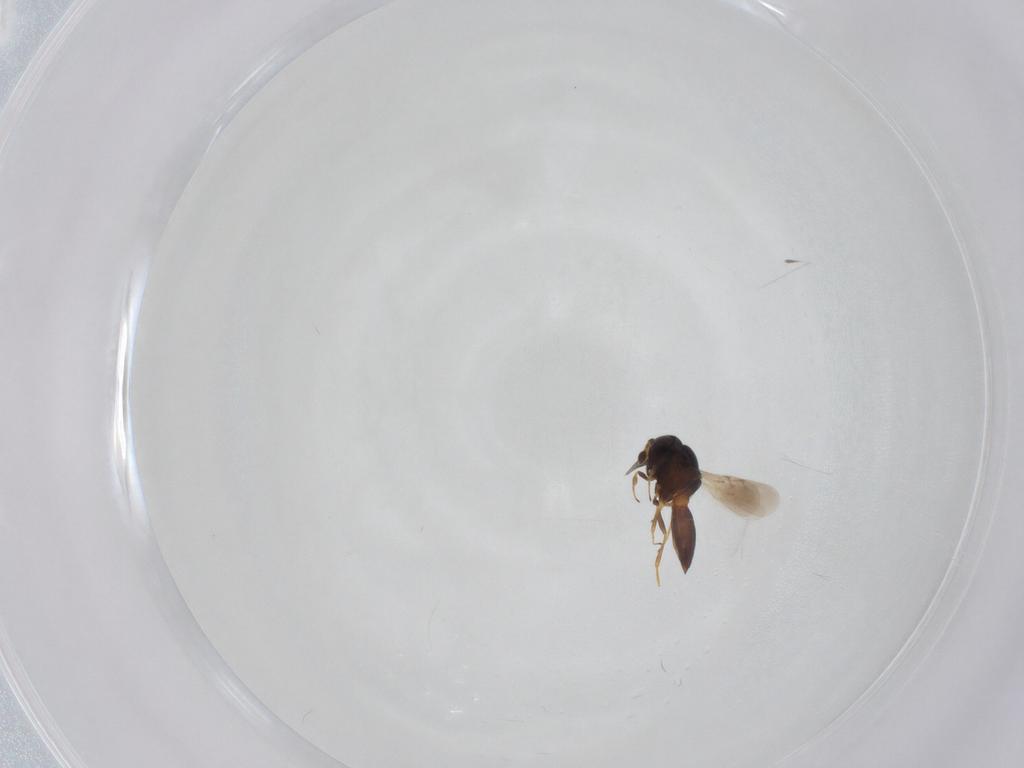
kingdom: Animalia
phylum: Arthropoda
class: Insecta
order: Hymenoptera
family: Scelionidae
